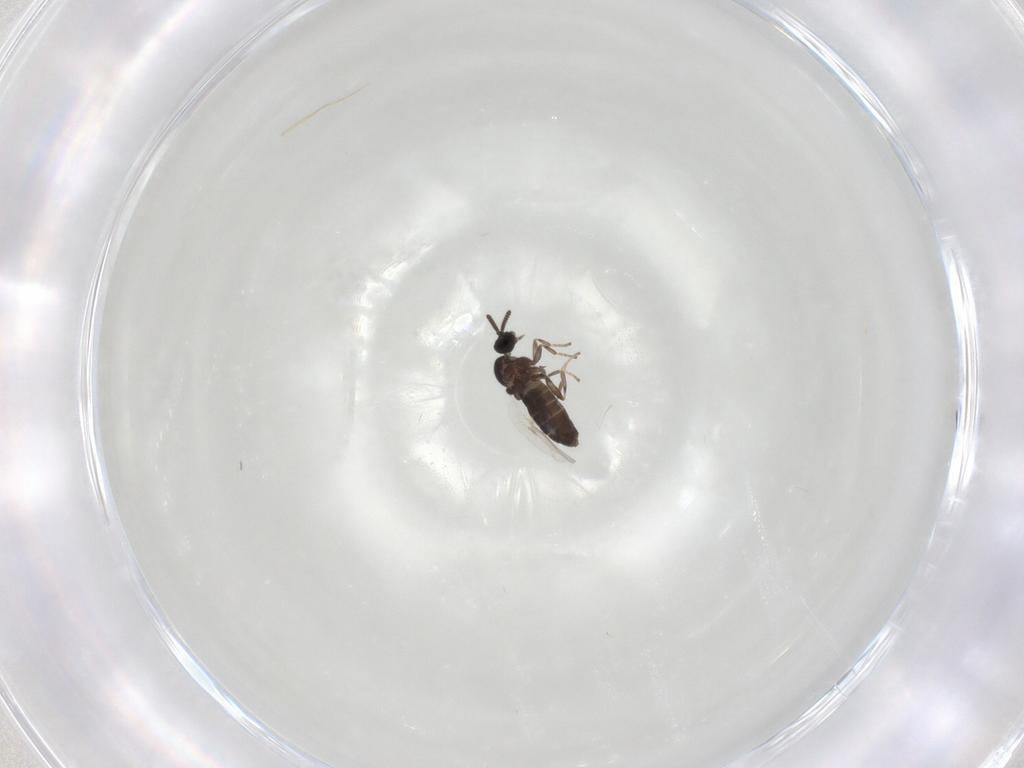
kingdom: Animalia
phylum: Arthropoda
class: Insecta
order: Diptera
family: Scatopsidae
